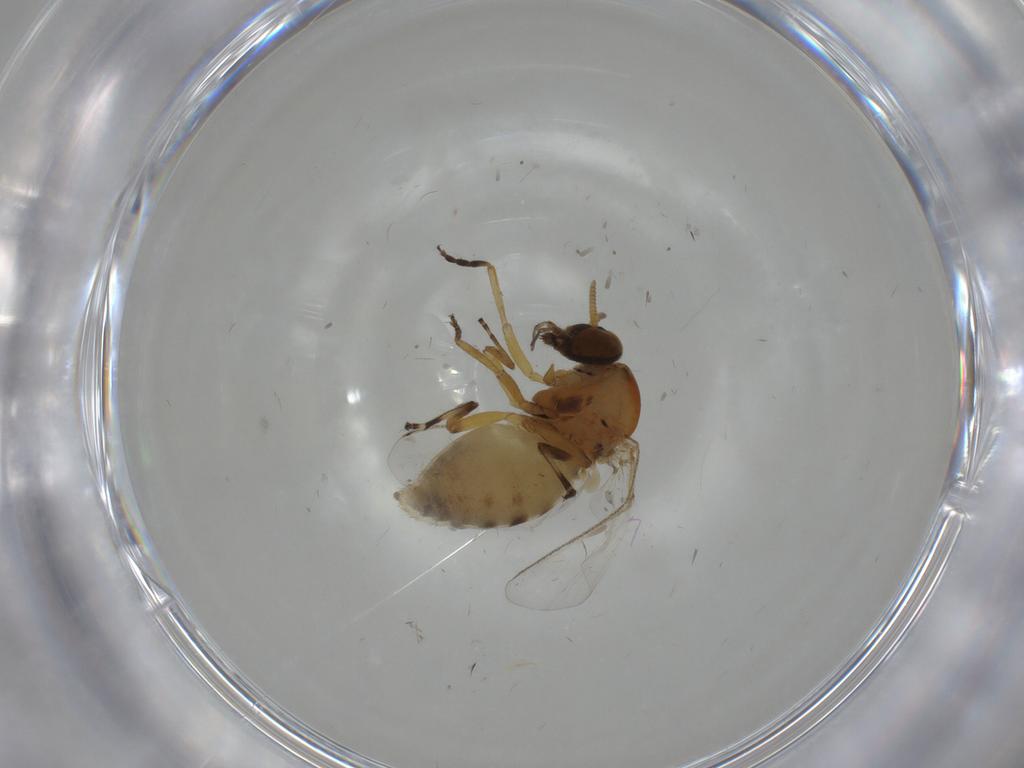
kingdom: Animalia
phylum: Arthropoda
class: Insecta
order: Diptera
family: Simuliidae
